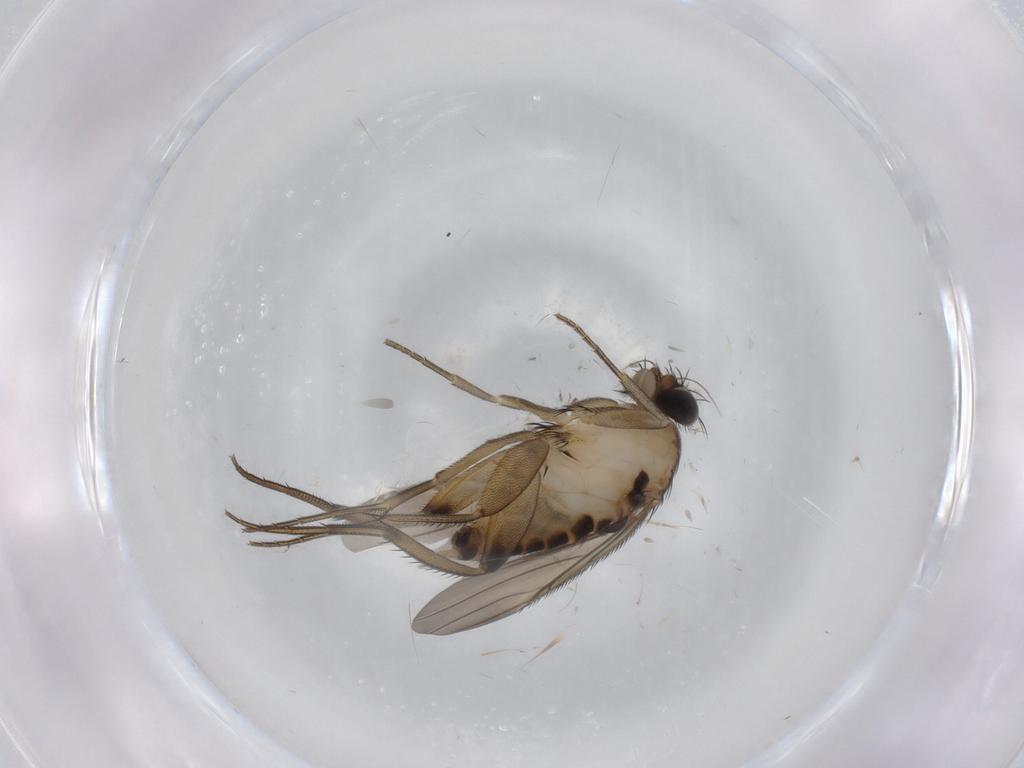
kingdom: Animalia
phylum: Arthropoda
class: Insecta
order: Diptera
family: Phoridae
